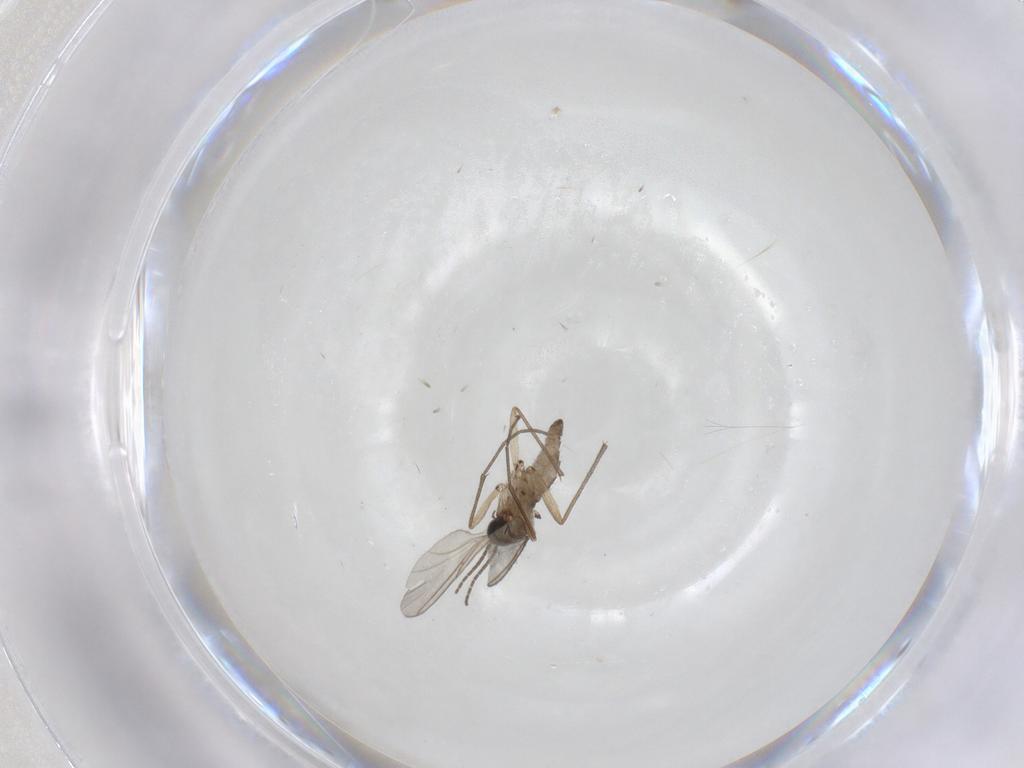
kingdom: Animalia
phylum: Arthropoda
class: Insecta
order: Diptera
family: Sciaridae
